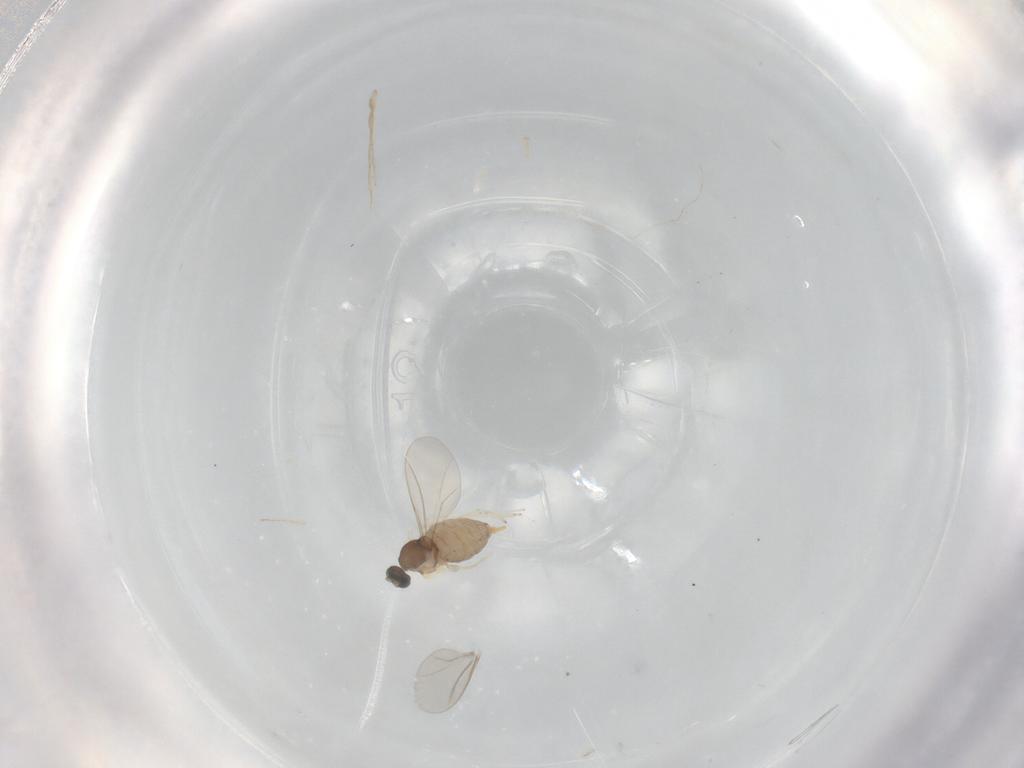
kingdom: Animalia
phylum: Arthropoda
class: Insecta
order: Diptera
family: Cecidomyiidae
